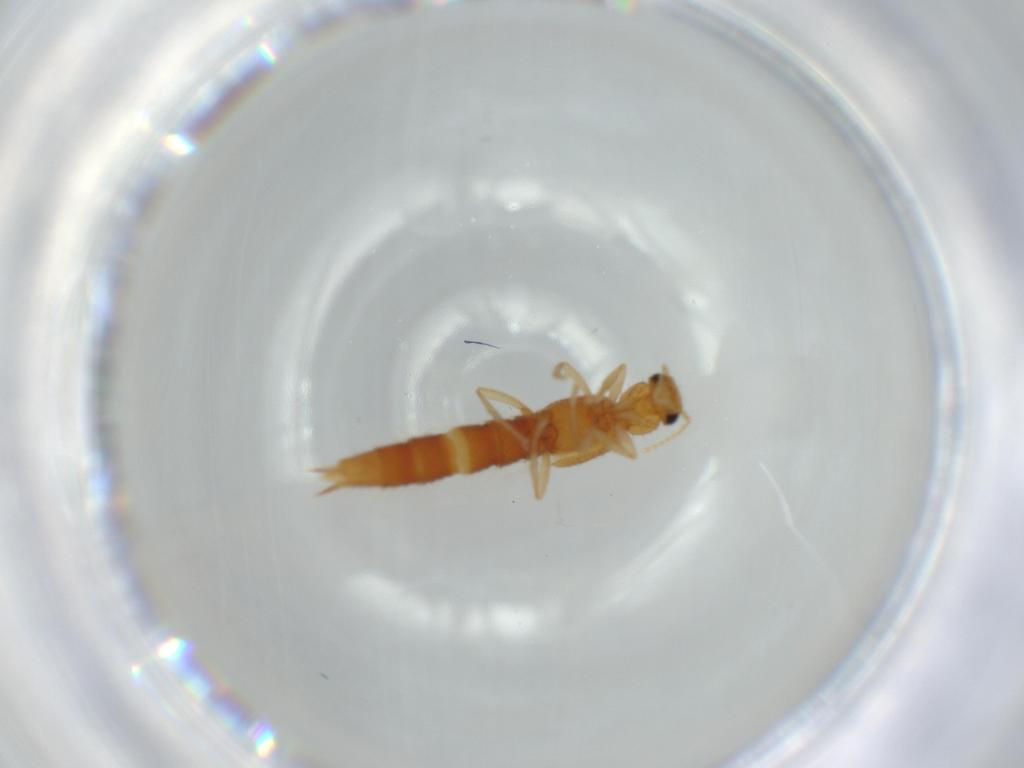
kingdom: Animalia
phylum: Arthropoda
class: Insecta
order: Coleoptera
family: Staphylinidae
